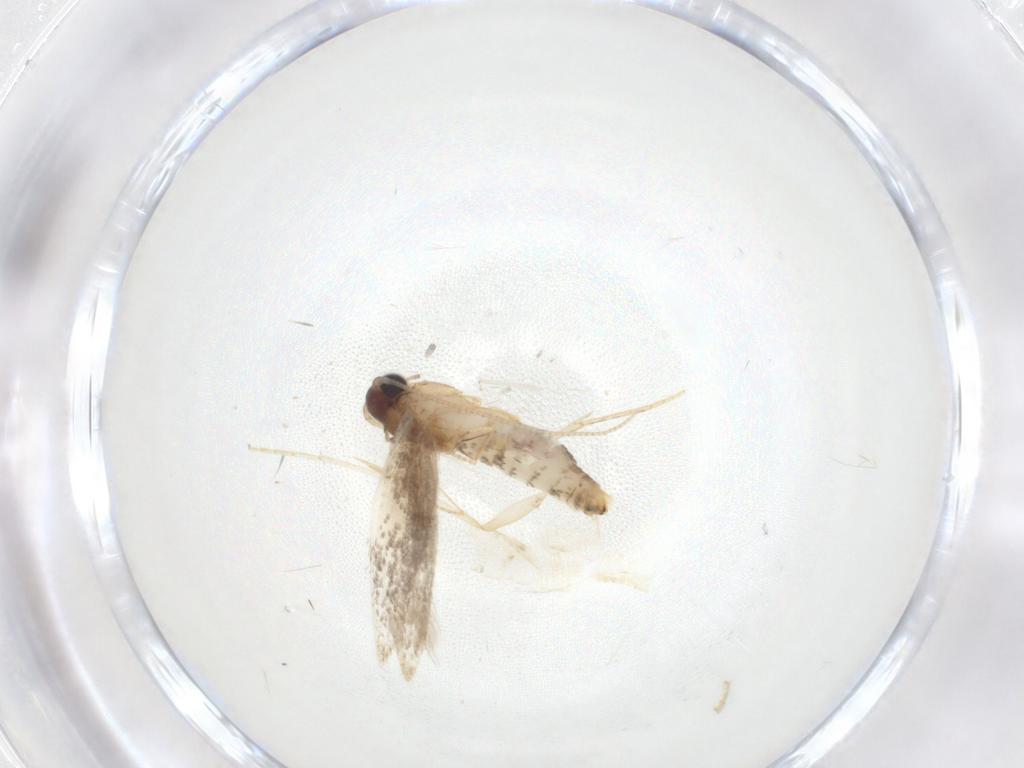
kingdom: Animalia
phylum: Arthropoda
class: Insecta
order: Lepidoptera
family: Tineidae
